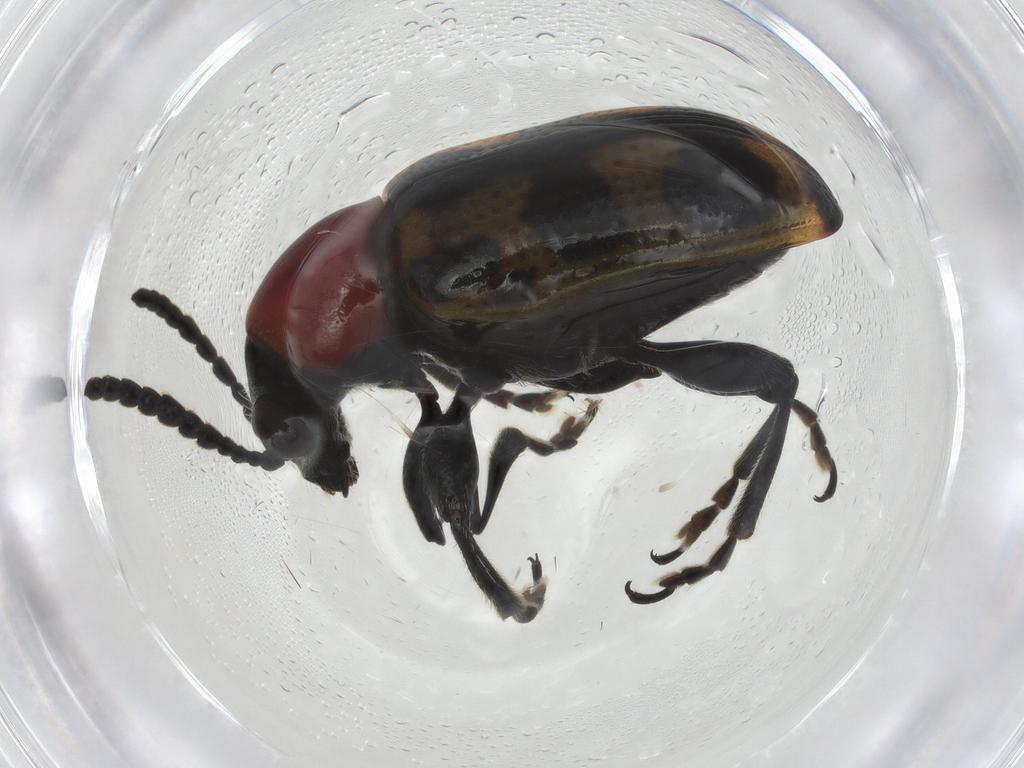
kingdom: Animalia
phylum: Arthropoda
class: Insecta
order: Coleoptera
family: Chrysomelidae
